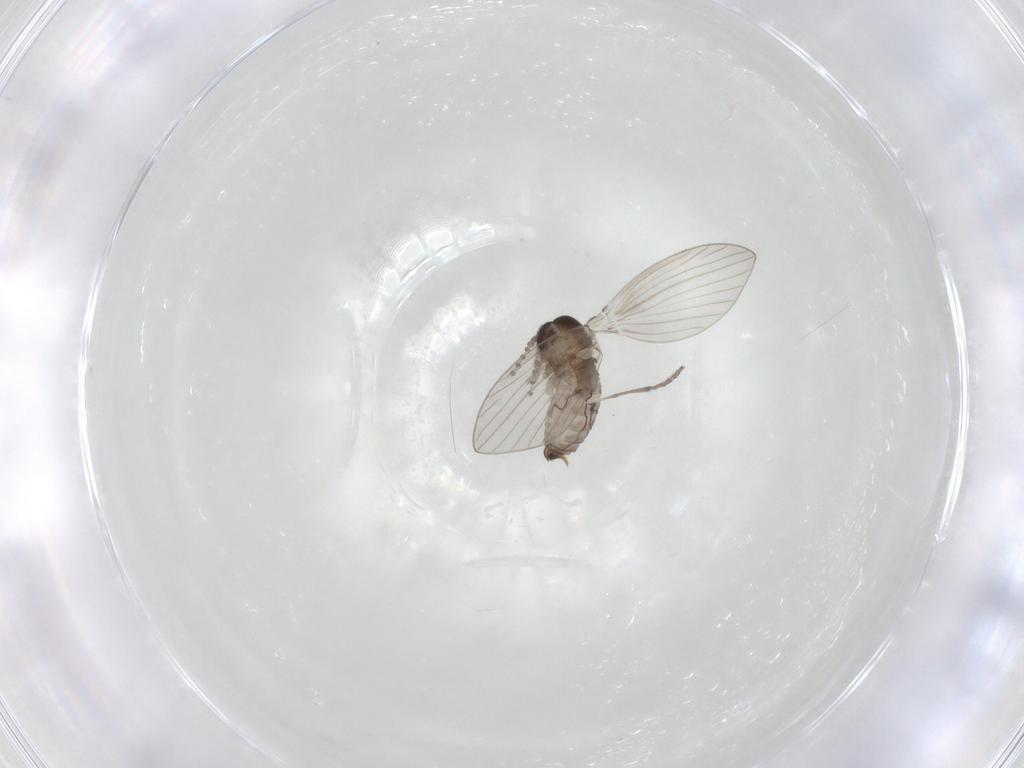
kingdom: Animalia
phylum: Arthropoda
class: Insecta
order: Diptera
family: Psychodidae
